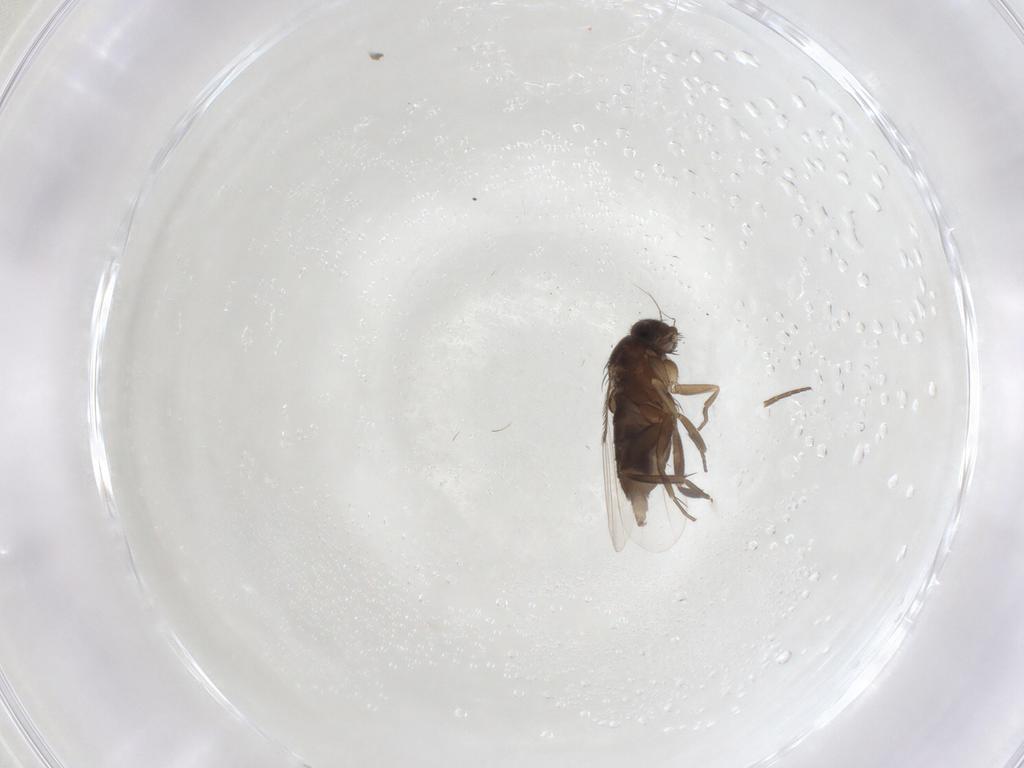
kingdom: Animalia
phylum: Arthropoda
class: Insecta
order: Diptera
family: Phoridae
